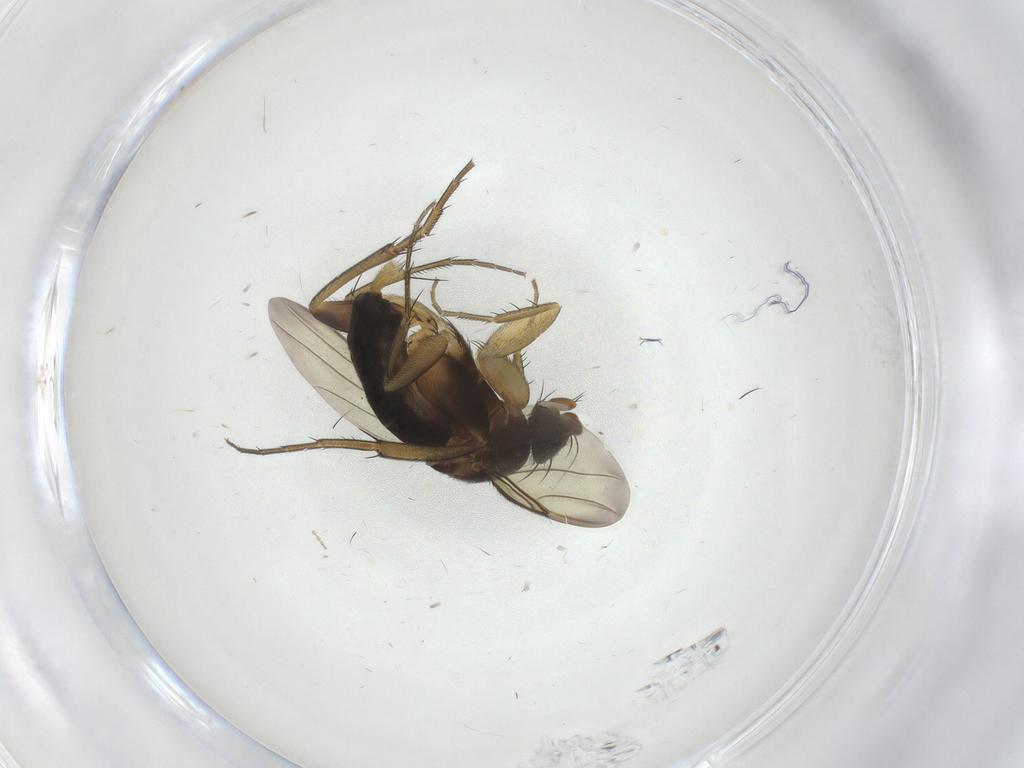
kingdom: Animalia
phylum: Arthropoda
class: Insecta
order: Diptera
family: Phoridae
